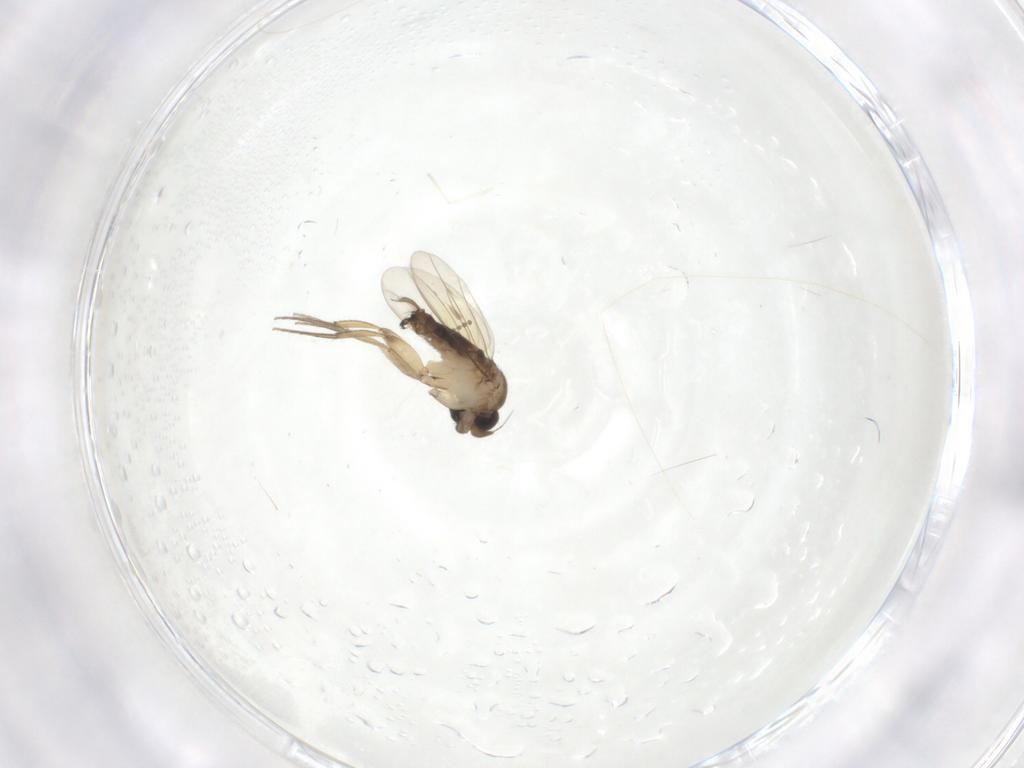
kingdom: Animalia
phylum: Arthropoda
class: Insecta
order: Diptera
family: Phoridae
